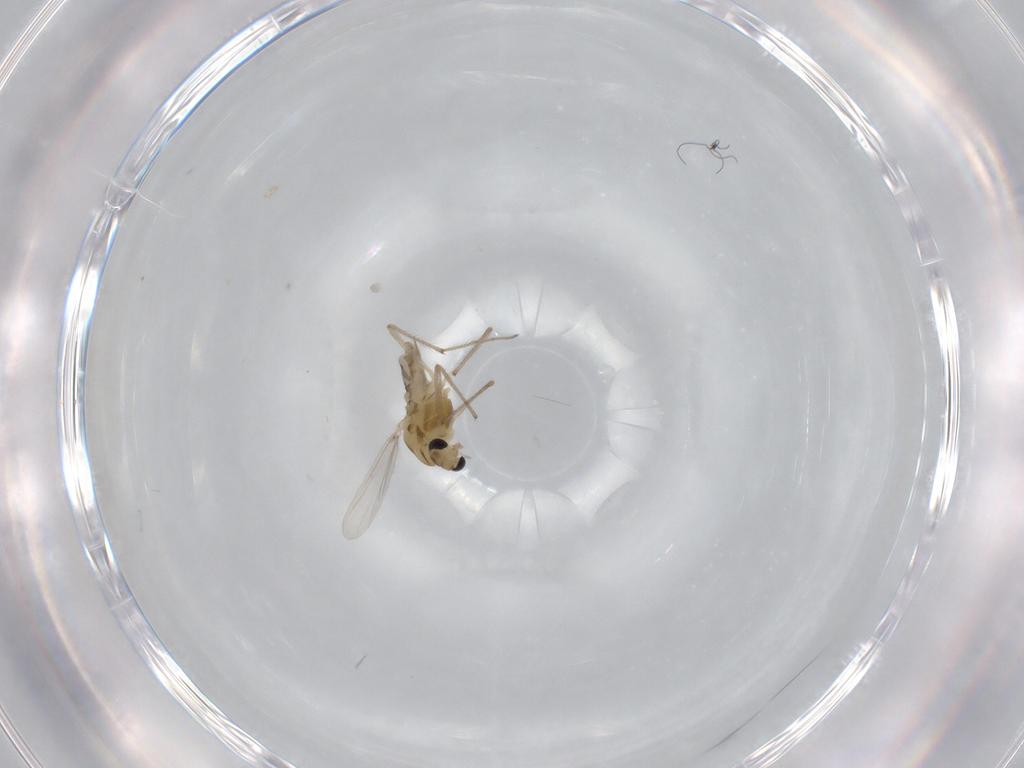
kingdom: Animalia
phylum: Arthropoda
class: Insecta
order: Diptera
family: Chironomidae
